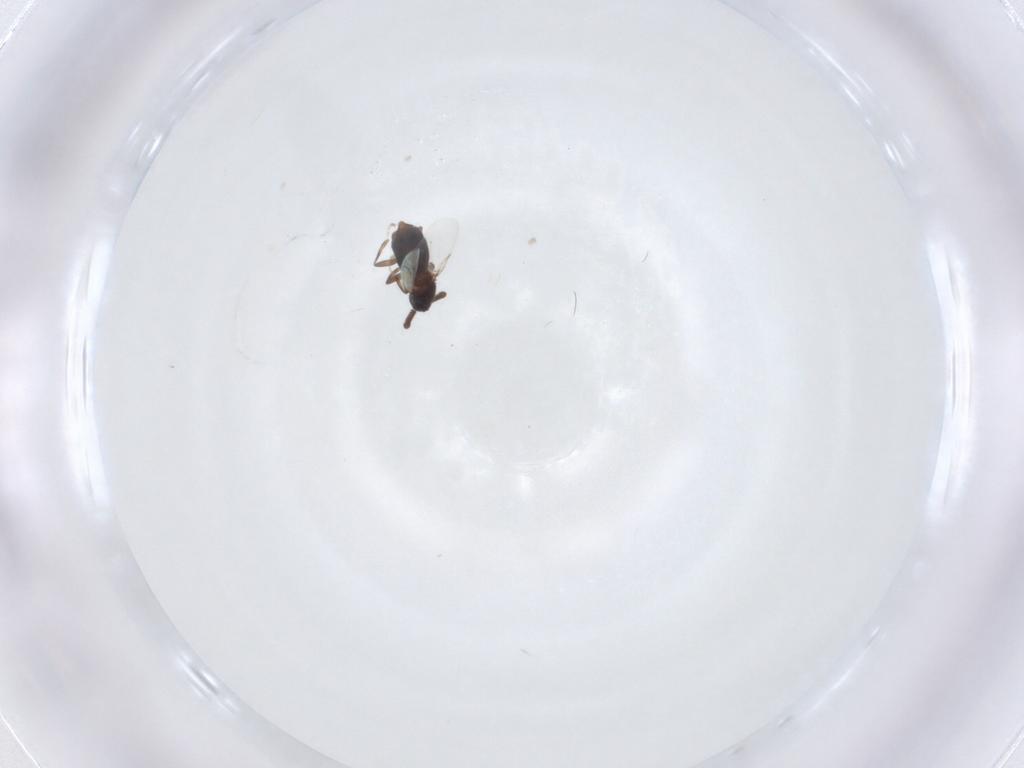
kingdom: Animalia
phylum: Arthropoda
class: Insecta
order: Diptera
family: Scatopsidae
